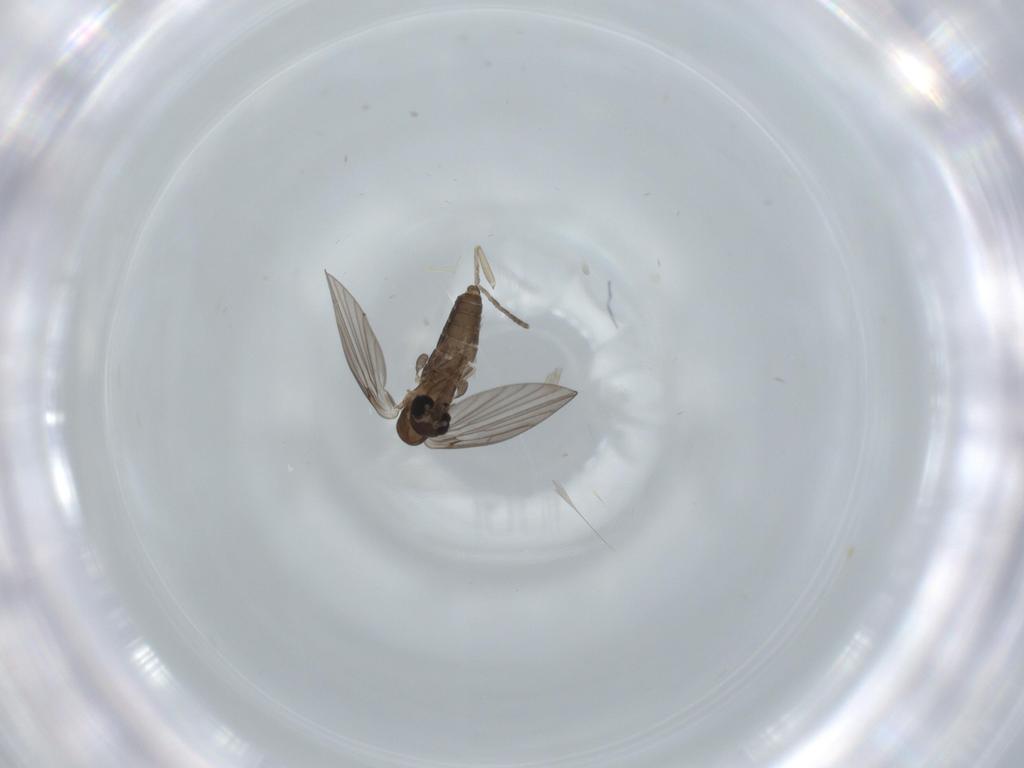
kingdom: Animalia
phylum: Arthropoda
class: Insecta
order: Diptera
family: Psychodidae
